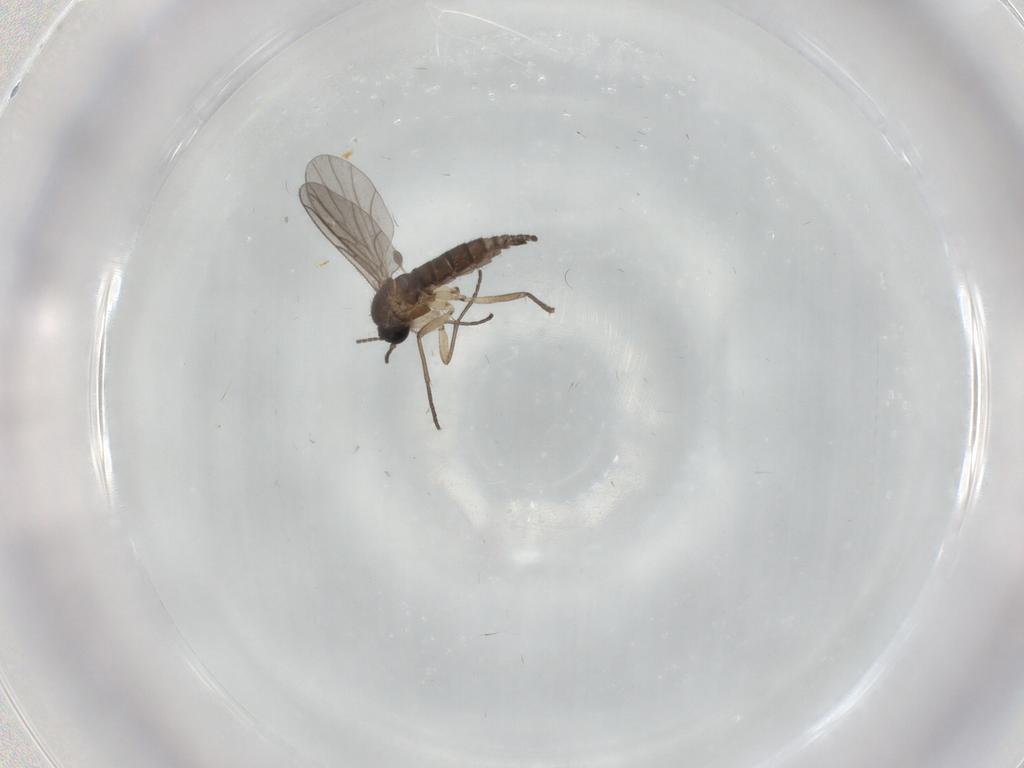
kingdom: Animalia
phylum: Arthropoda
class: Insecta
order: Diptera
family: Sciaridae
